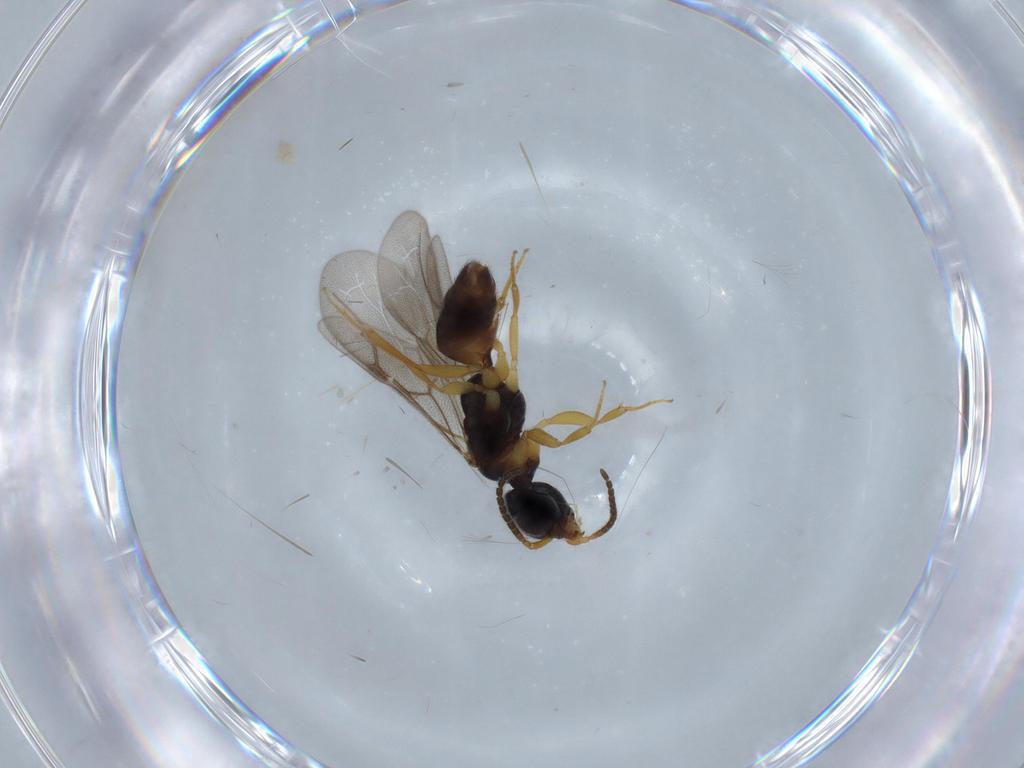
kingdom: Animalia
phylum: Arthropoda
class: Insecta
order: Hymenoptera
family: Bethylidae
